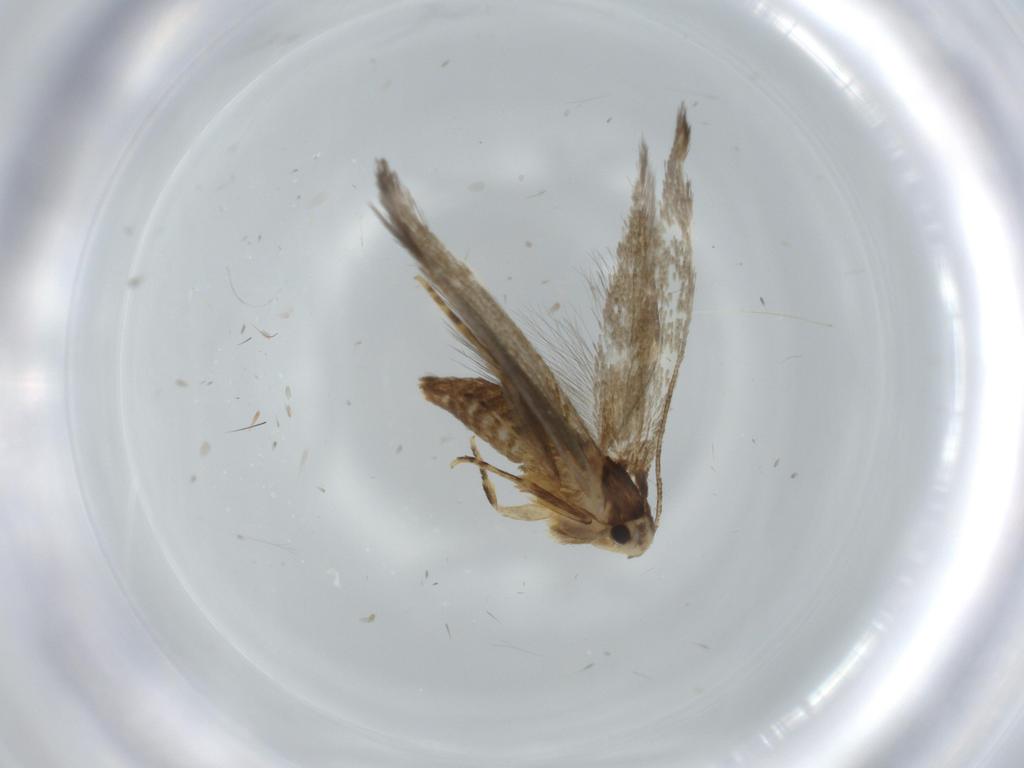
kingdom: Animalia
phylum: Arthropoda
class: Insecta
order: Lepidoptera
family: Tineidae
